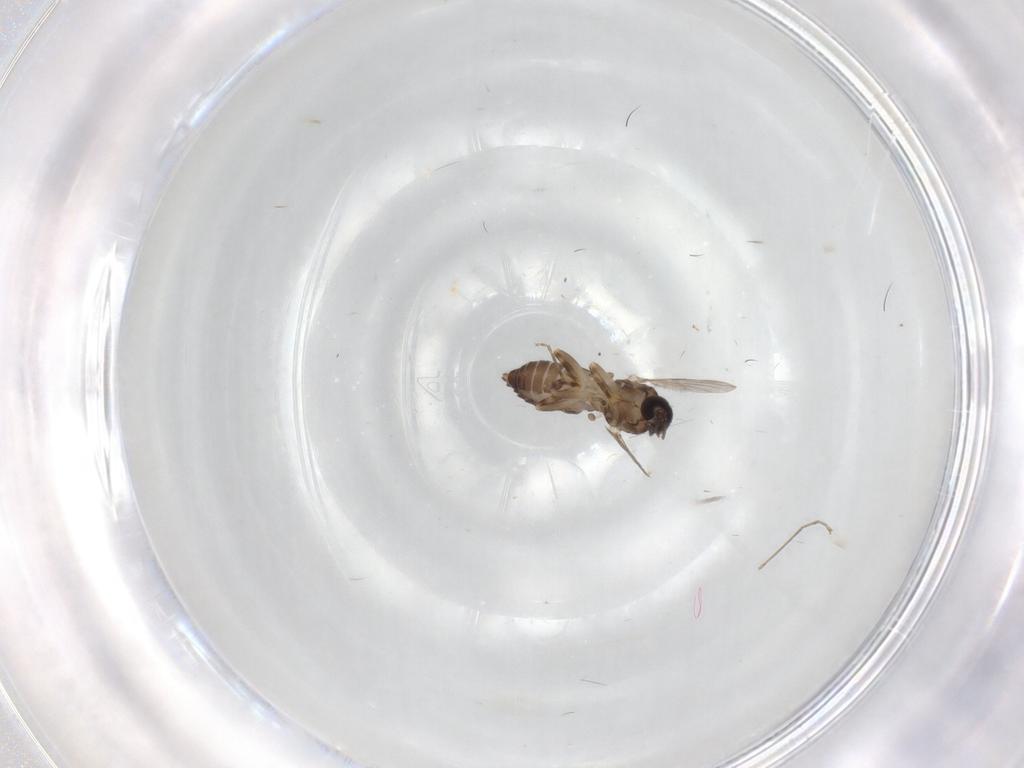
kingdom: Animalia
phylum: Arthropoda
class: Insecta
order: Diptera
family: Ceratopogonidae
